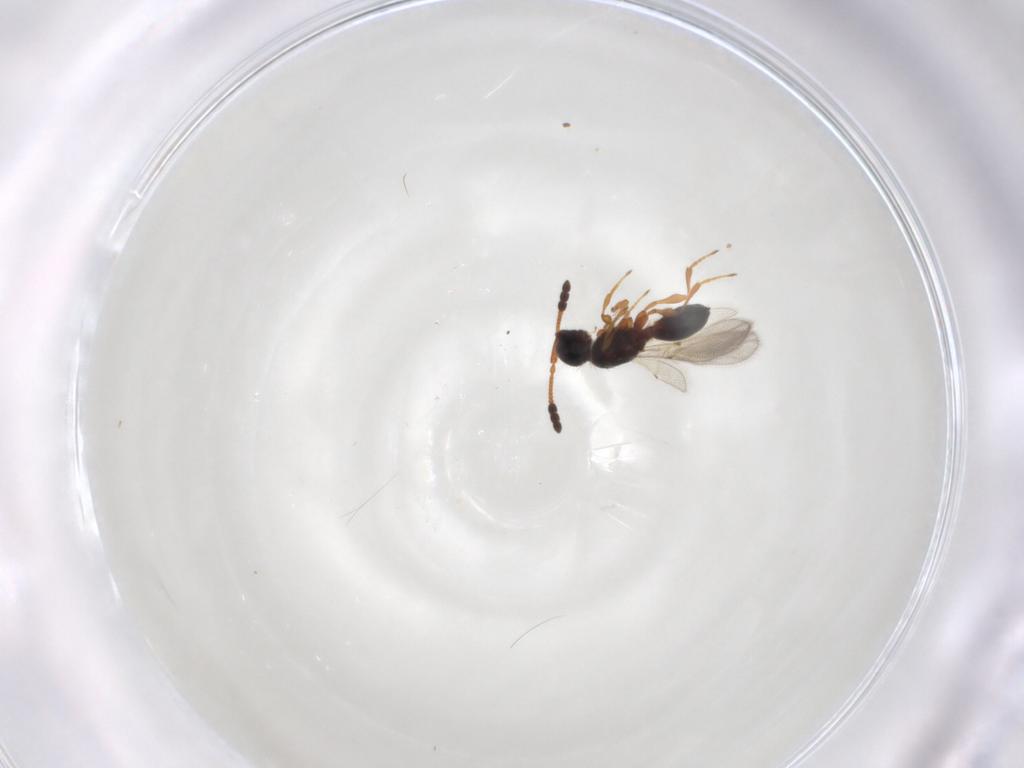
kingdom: Animalia
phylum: Arthropoda
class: Insecta
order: Hymenoptera
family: Diapriidae
